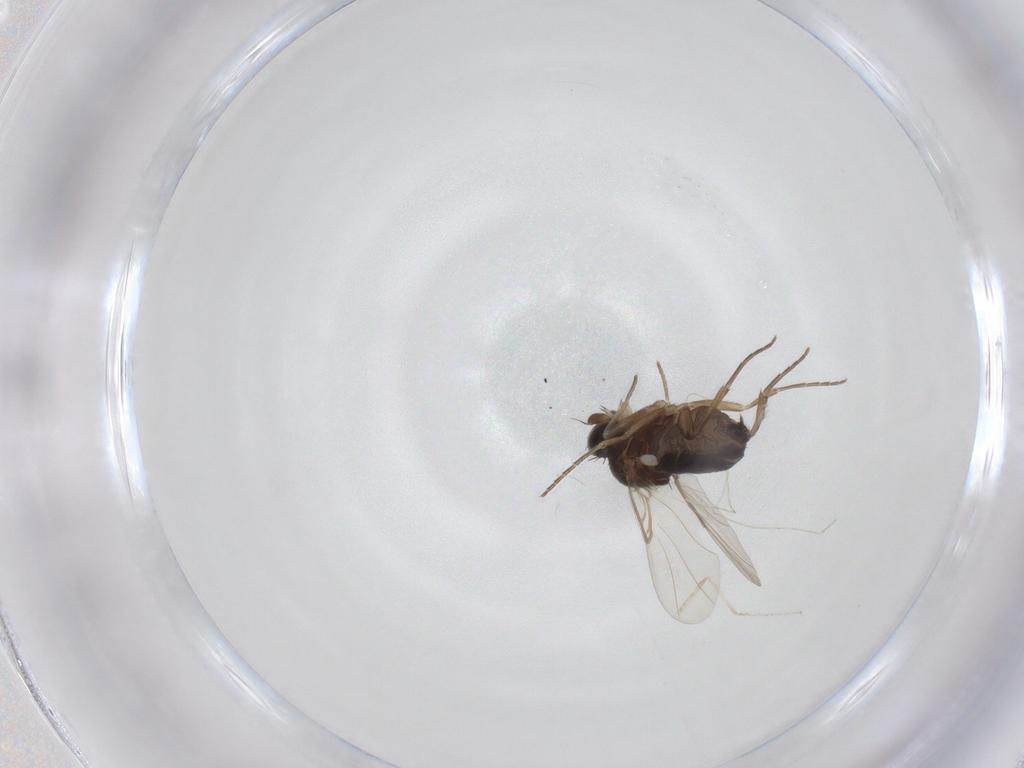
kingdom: Animalia
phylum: Arthropoda
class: Insecta
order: Diptera
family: Phoridae
